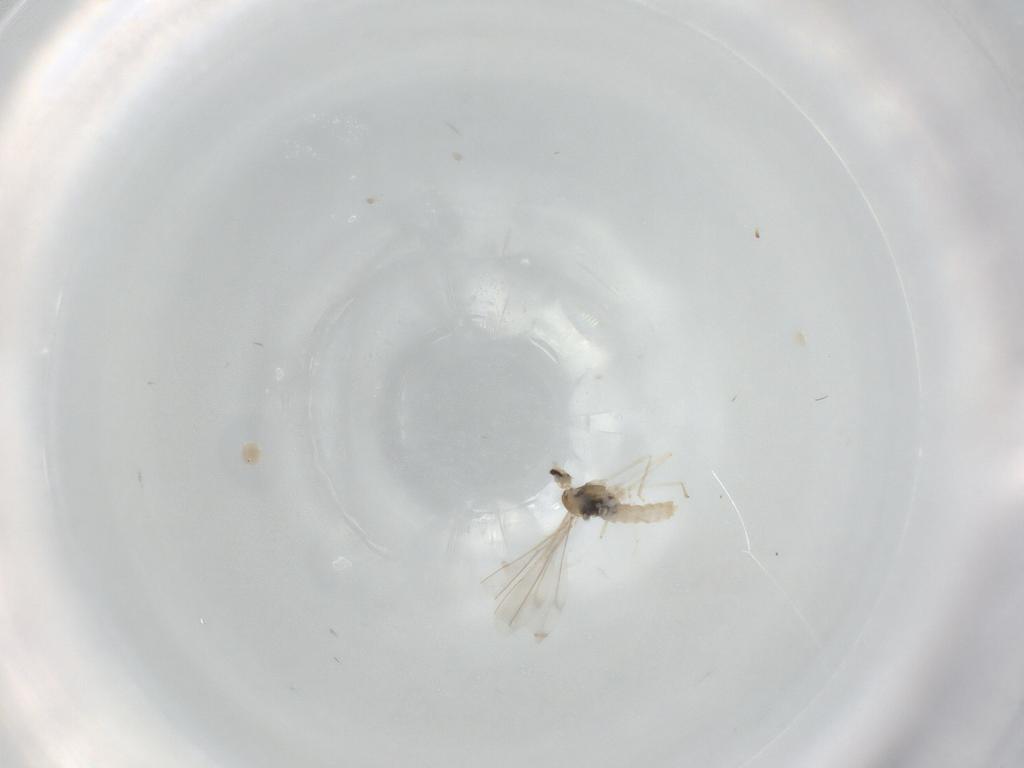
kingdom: Animalia
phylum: Arthropoda
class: Insecta
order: Diptera
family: Cecidomyiidae
